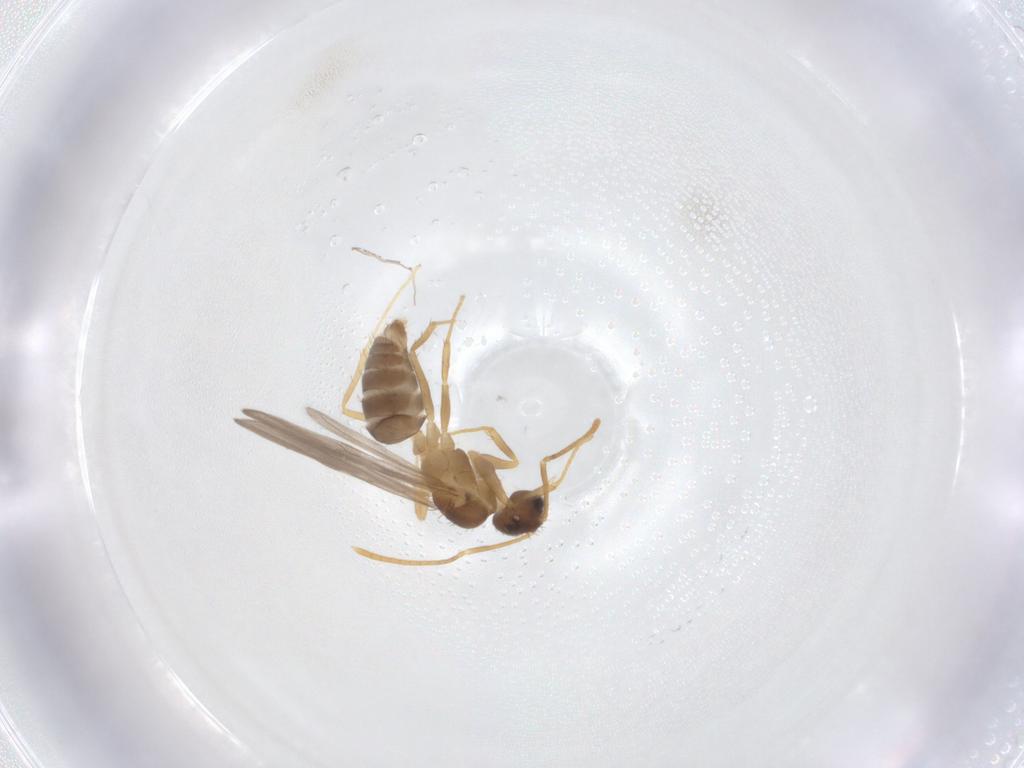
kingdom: Animalia
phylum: Arthropoda
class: Insecta
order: Hymenoptera
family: Formicidae
